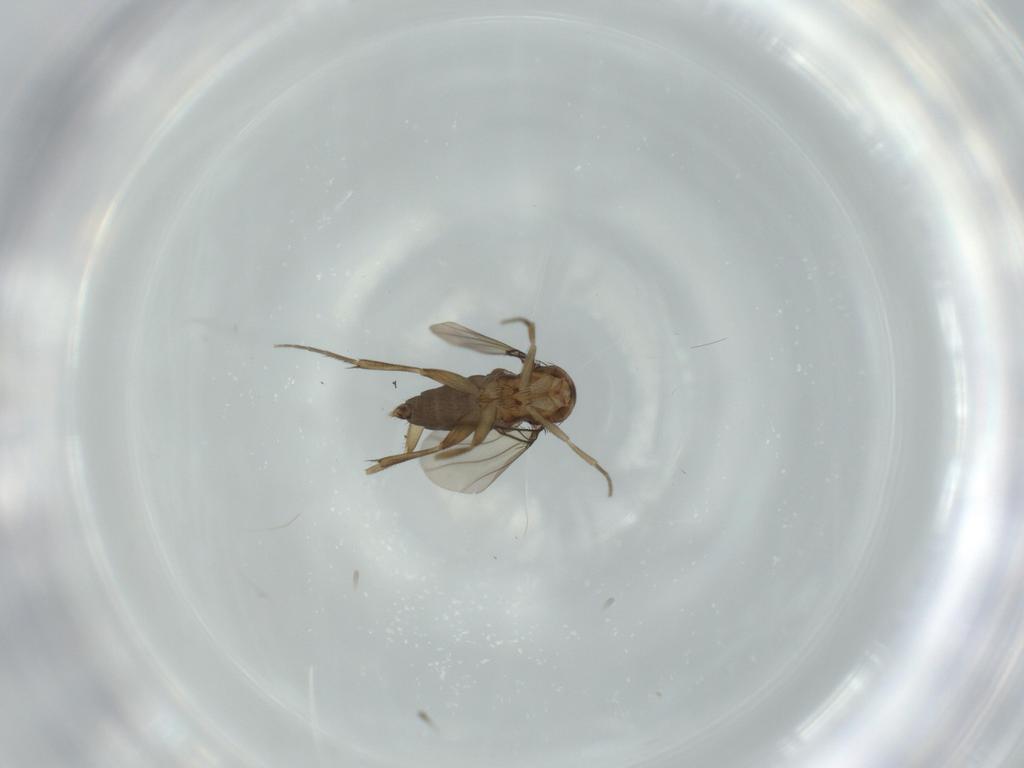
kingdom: Animalia
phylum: Arthropoda
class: Insecta
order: Diptera
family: Phoridae
